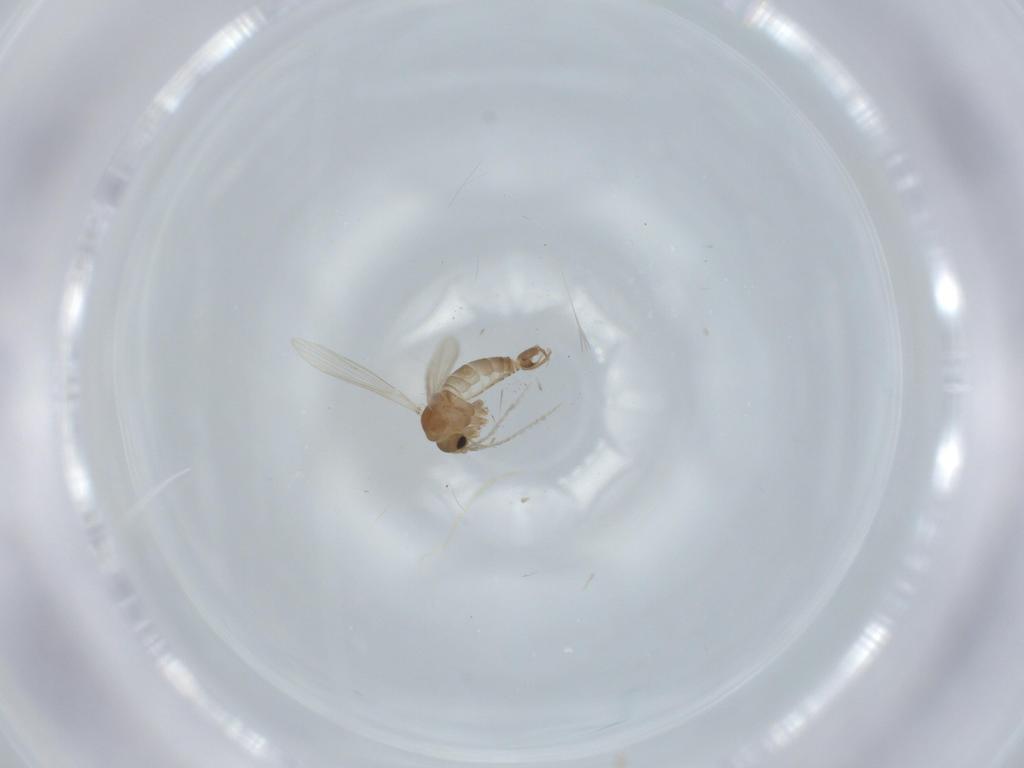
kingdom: Animalia
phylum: Arthropoda
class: Insecta
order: Diptera
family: Psychodidae
